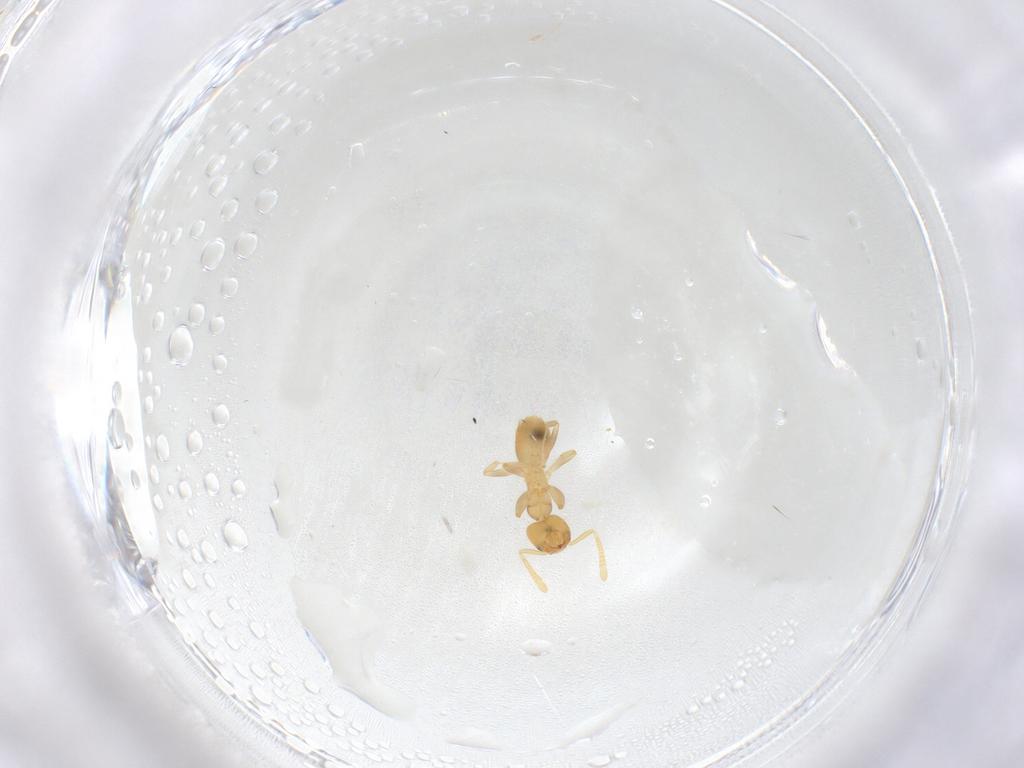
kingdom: Animalia
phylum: Arthropoda
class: Insecta
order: Hymenoptera
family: Formicidae
